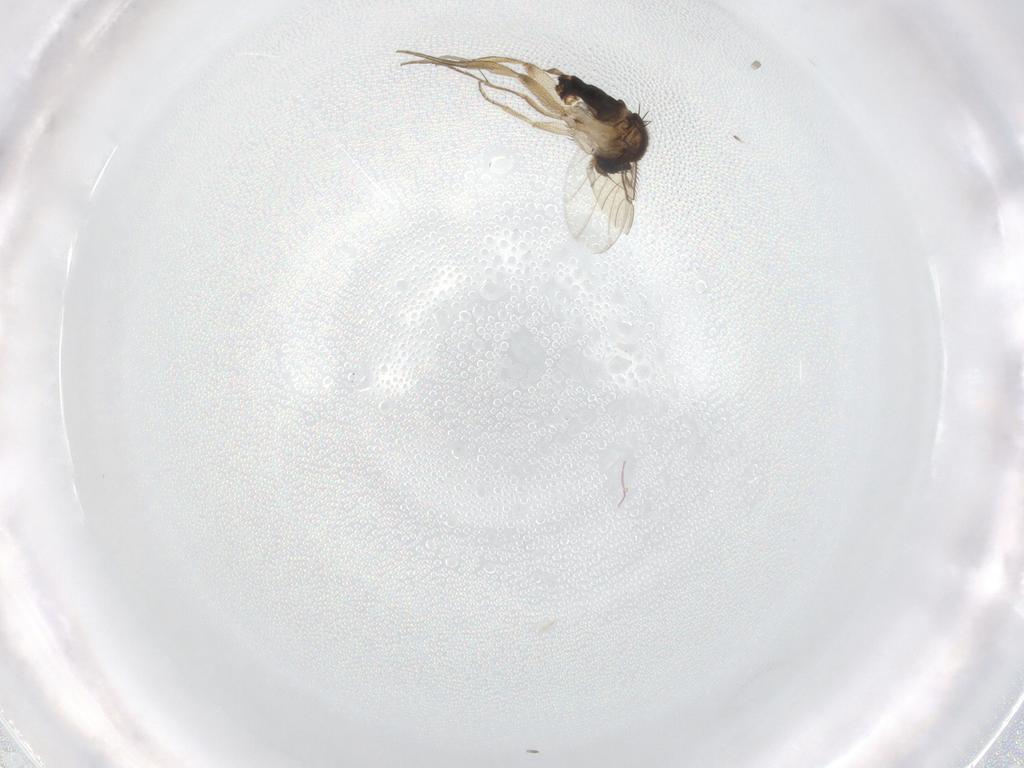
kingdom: Animalia
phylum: Arthropoda
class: Insecta
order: Diptera
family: Phoridae
